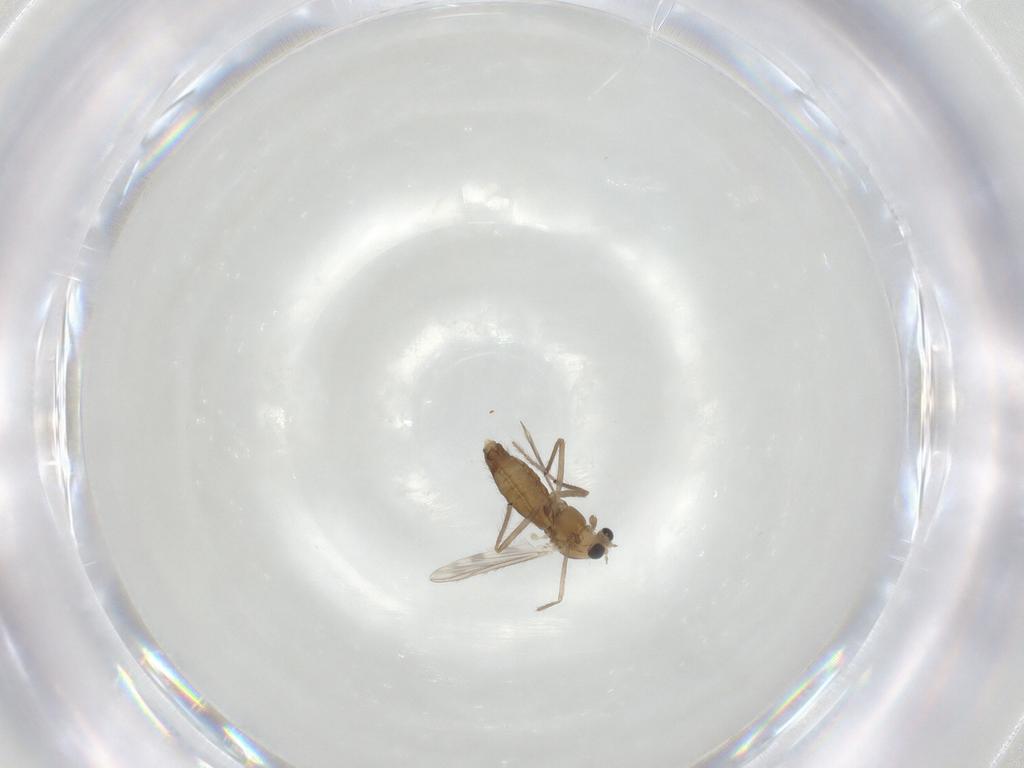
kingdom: Animalia
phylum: Arthropoda
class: Insecta
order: Diptera
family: Chironomidae
